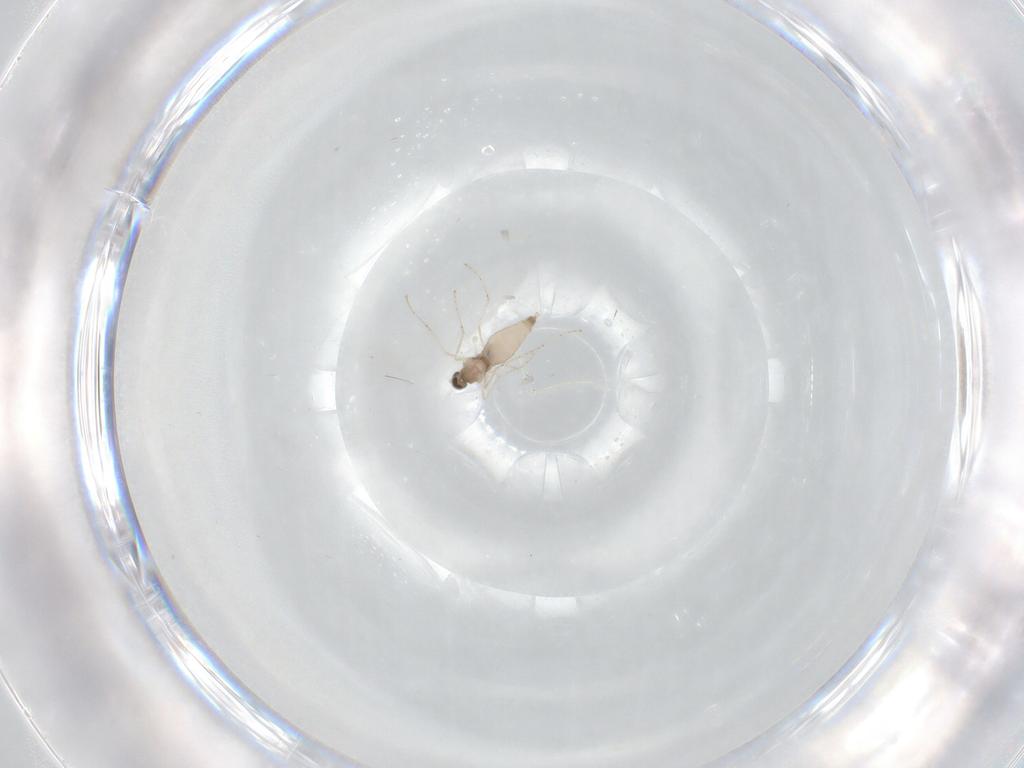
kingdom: Animalia
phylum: Arthropoda
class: Insecta
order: Diptera
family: Cecidomyiidae
